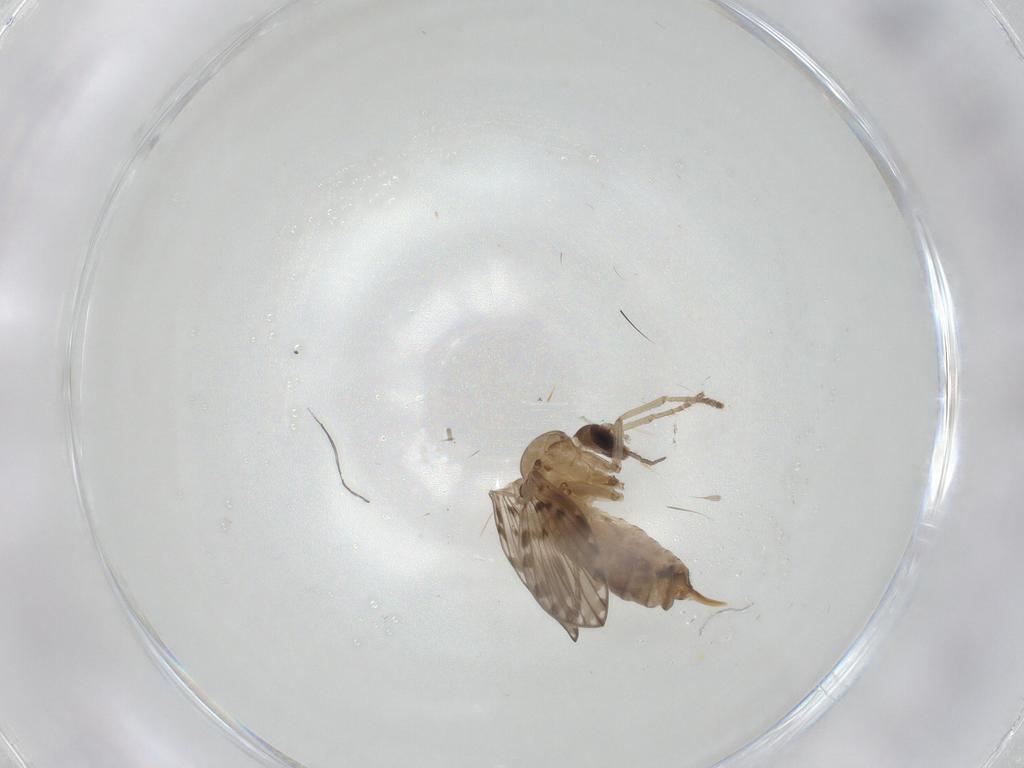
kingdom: Animalia
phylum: Arthropoda
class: Insecta
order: Diptera
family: Psychodidae
